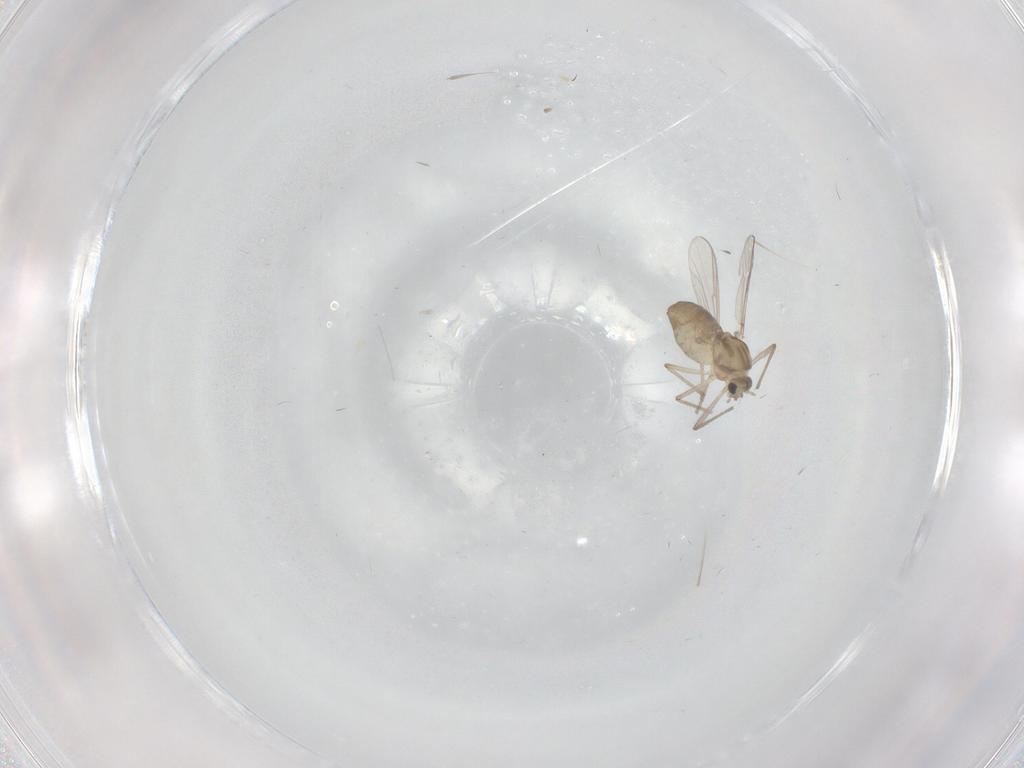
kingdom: Animalia
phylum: Arthropoda
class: Insecta
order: Diptera
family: Chironomidae
